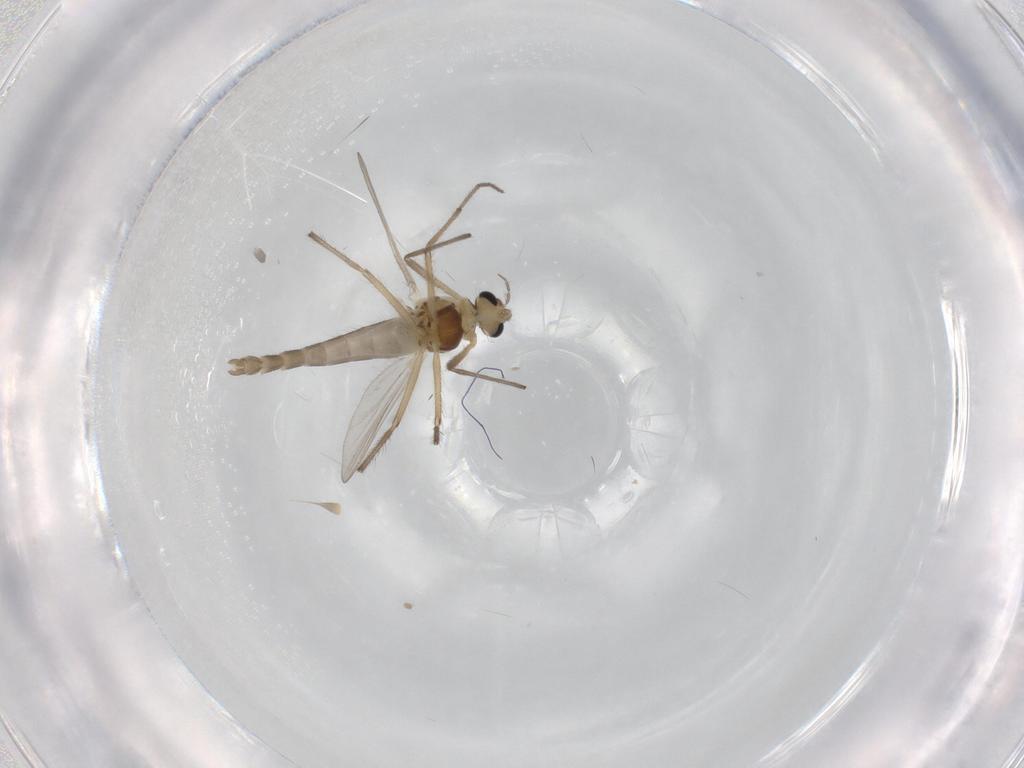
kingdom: Animalia
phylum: Arthropoda
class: Insecta
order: Diptera
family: Chironomidae
